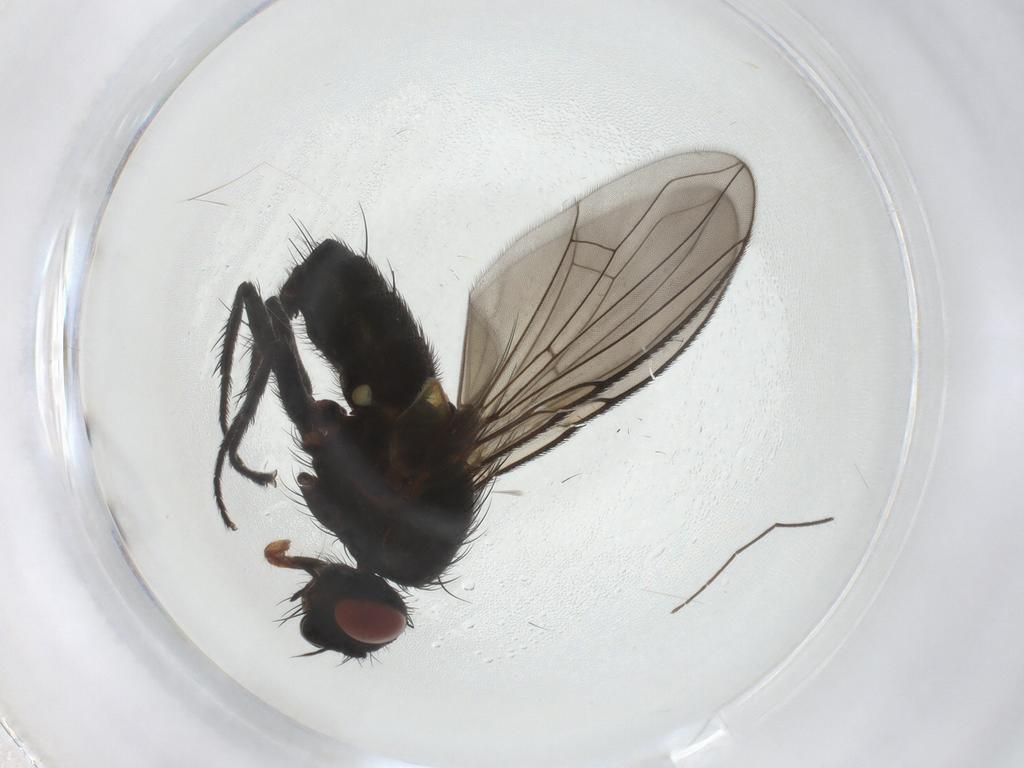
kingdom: Animalia
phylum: Arthropoda
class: Insecta
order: Diptera
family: Tachinidae
